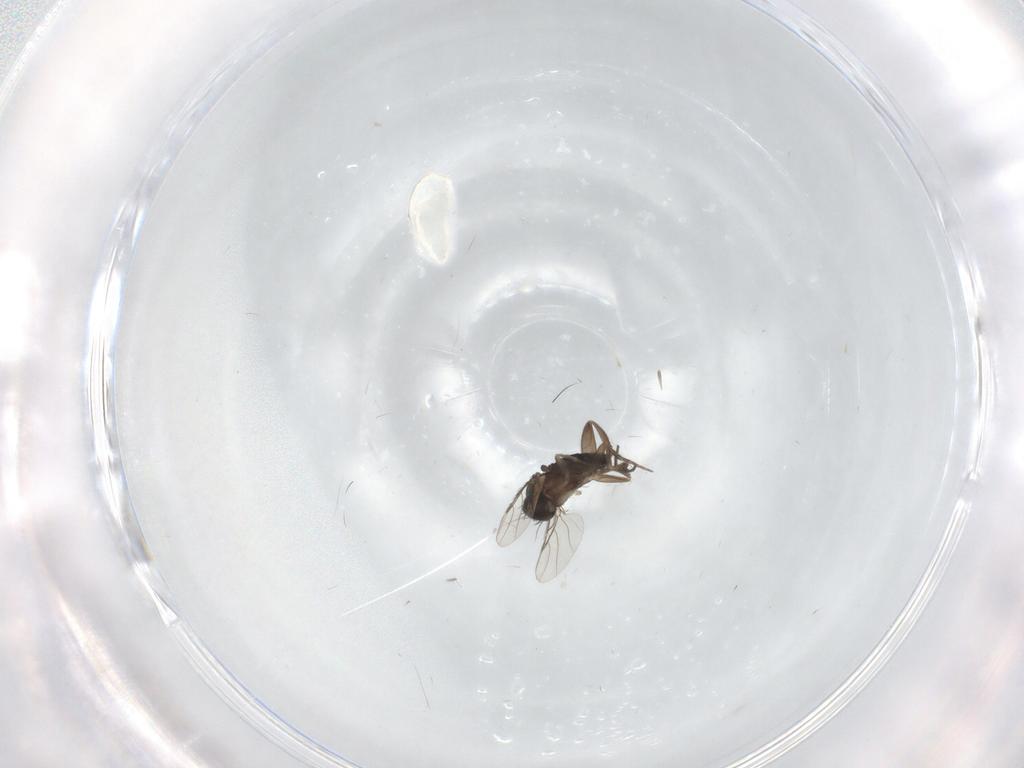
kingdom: Animalia
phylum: Arthropoda
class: Insecta
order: Diptera
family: Phoridae
